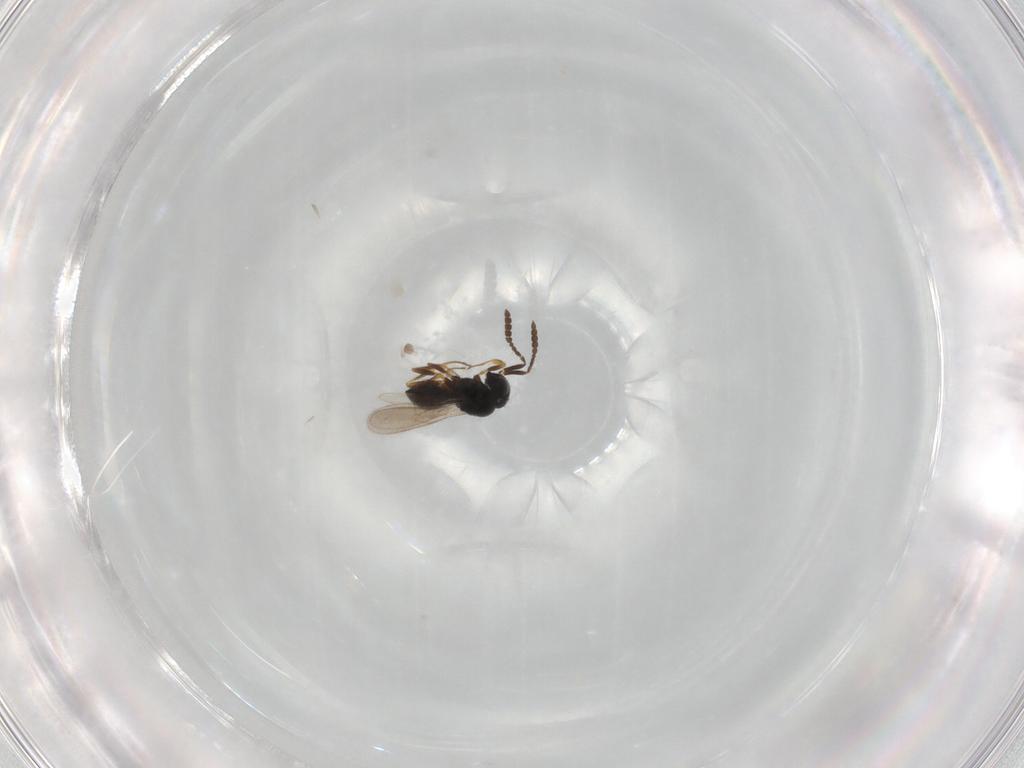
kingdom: Animalia
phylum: Arthropoda
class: Insecta
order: Hymenoptera
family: Scelionidae
